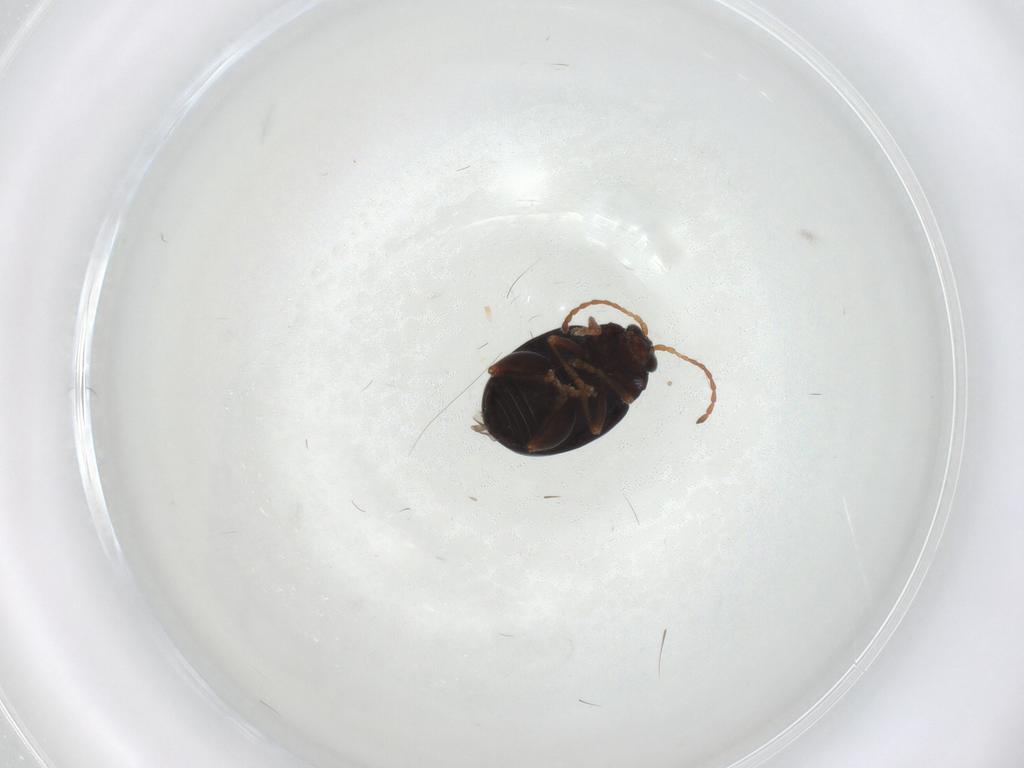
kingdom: Animalia
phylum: Arthropoda
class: Insecta
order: Coleoptera
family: Chrysomelidae
